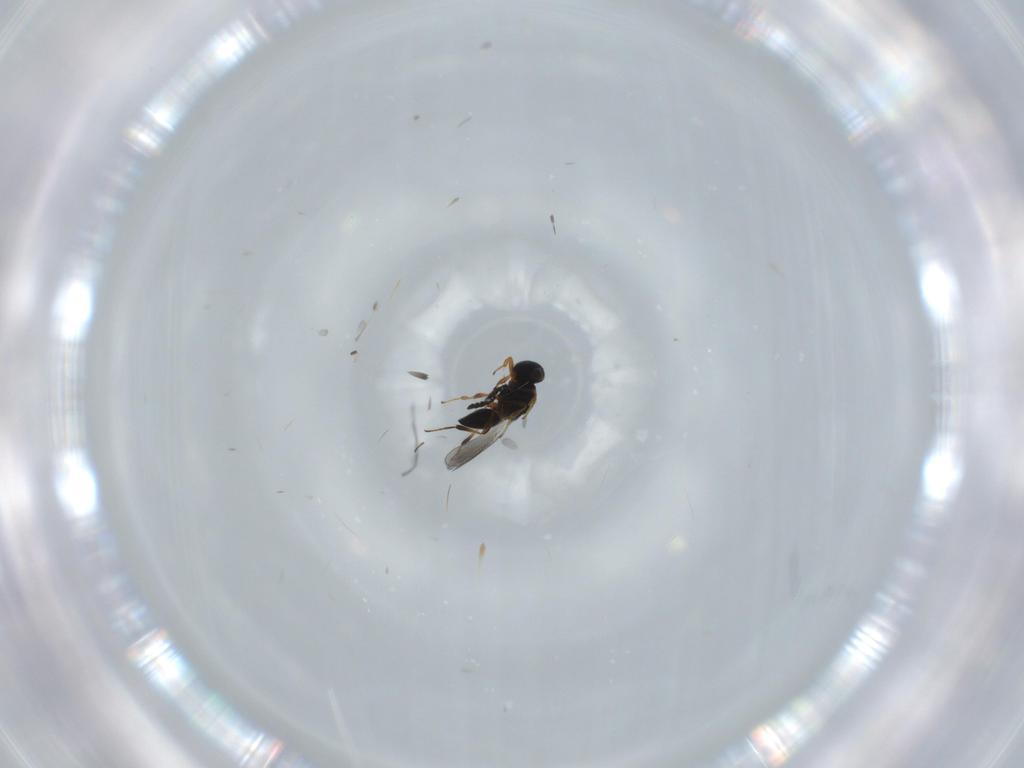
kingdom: Animalia
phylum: Arthropoda
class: Insecta
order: Hymenoptera
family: Platygastridae
